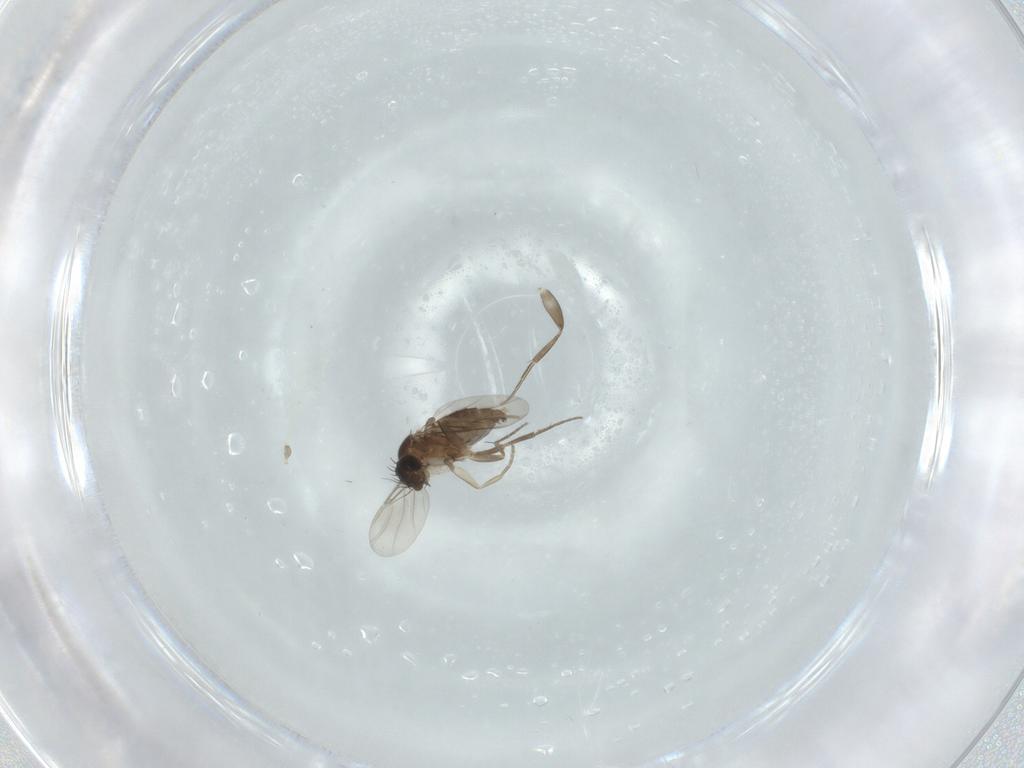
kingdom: Animalia
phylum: Arthropoda
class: Insecta
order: Diptera
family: Phoridae
